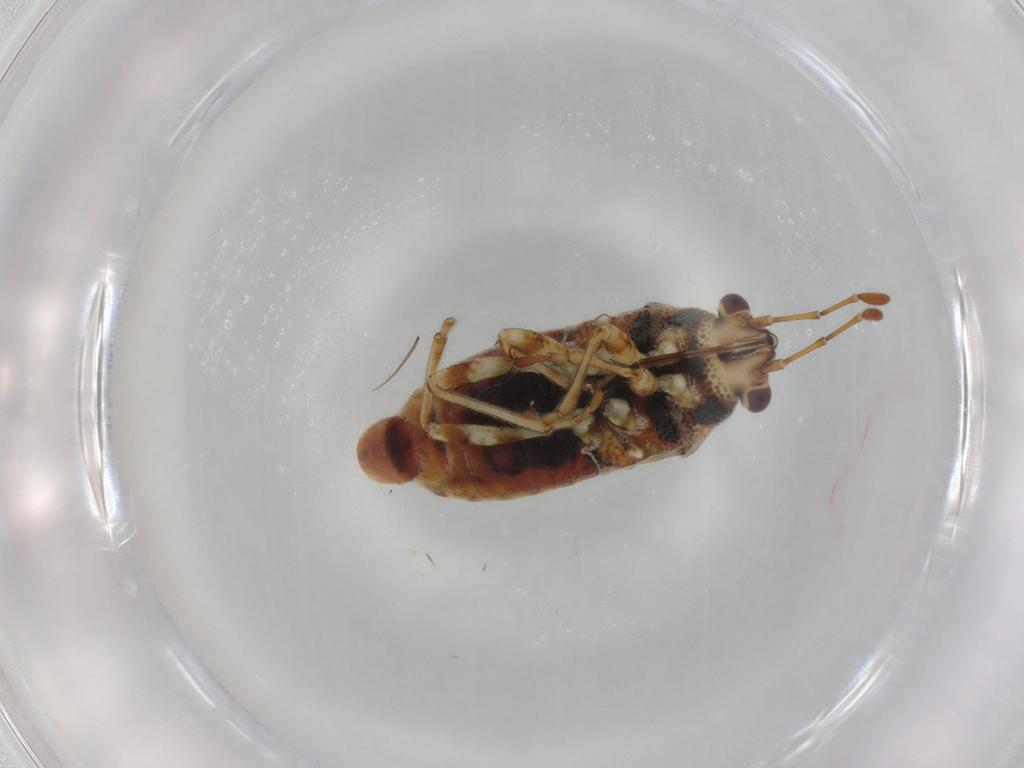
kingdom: Animalia
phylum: Arthropoda
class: Insecta
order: Hemiptera
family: Lygaeidae
